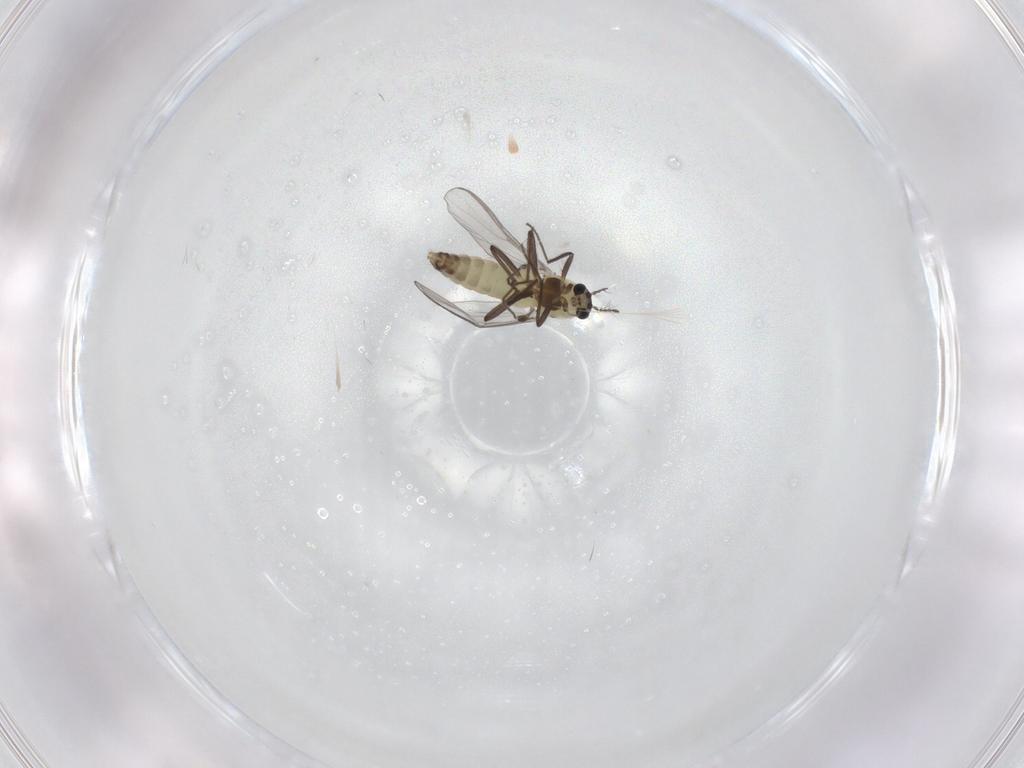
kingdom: Animalia
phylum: Arthropoda
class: Insecta
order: Diptera
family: Chironomidae
